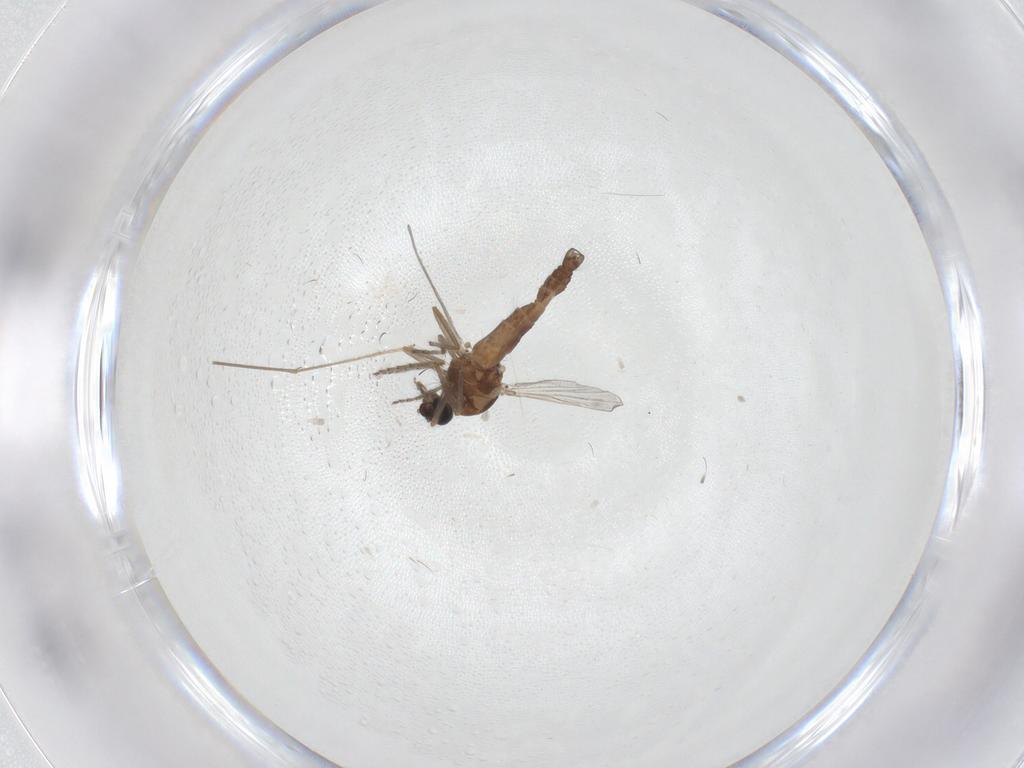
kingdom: Animalia
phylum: Arthropoda
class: Insecta
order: Diptera
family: Ceratopogonidae
